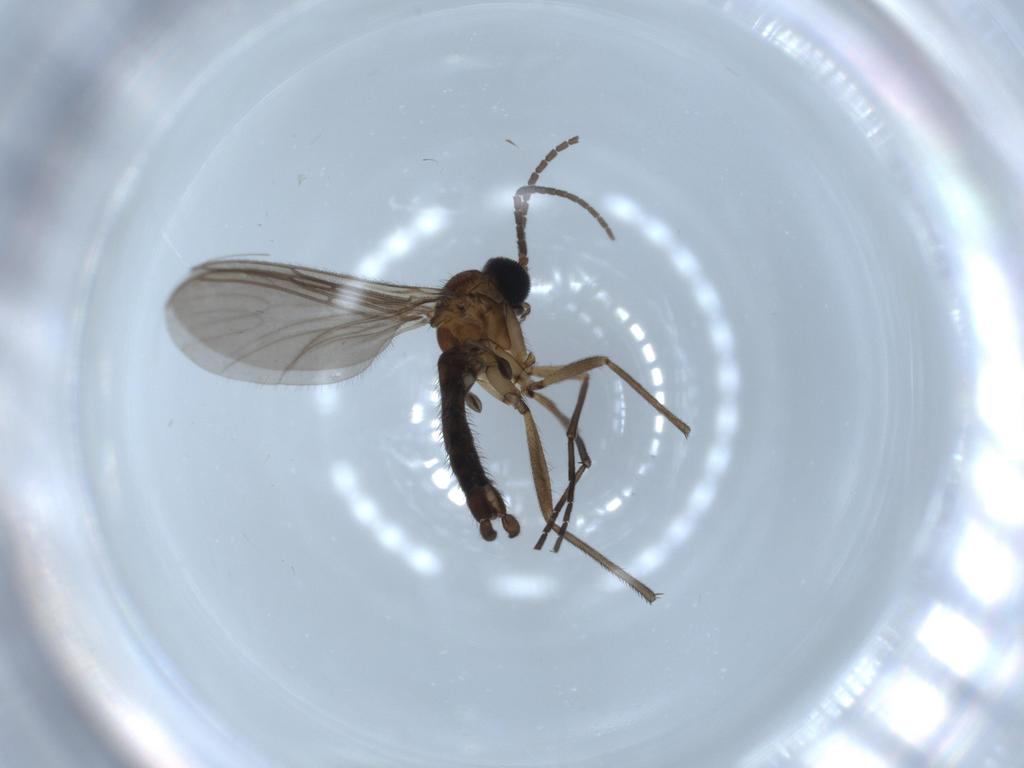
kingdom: Animalia
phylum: Arthropoda
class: Insecta
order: Diptera
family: Sciaridae
